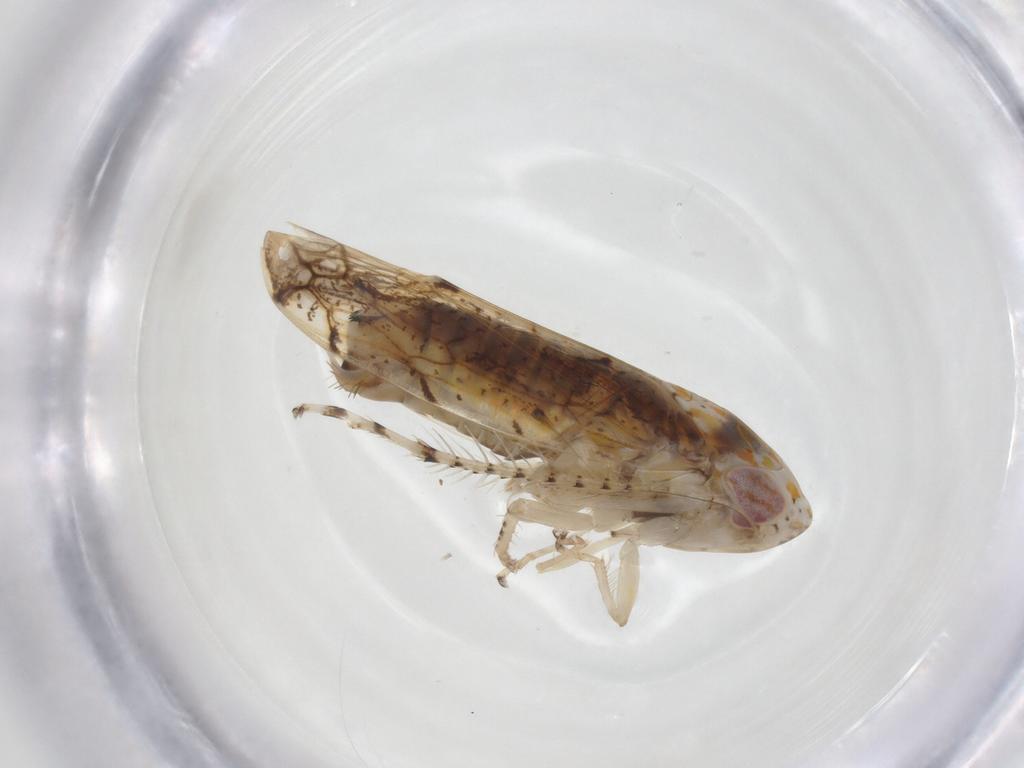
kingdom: Animalia
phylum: Arthropoda
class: Insecta
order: Hemiptera
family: Cicadellidae
